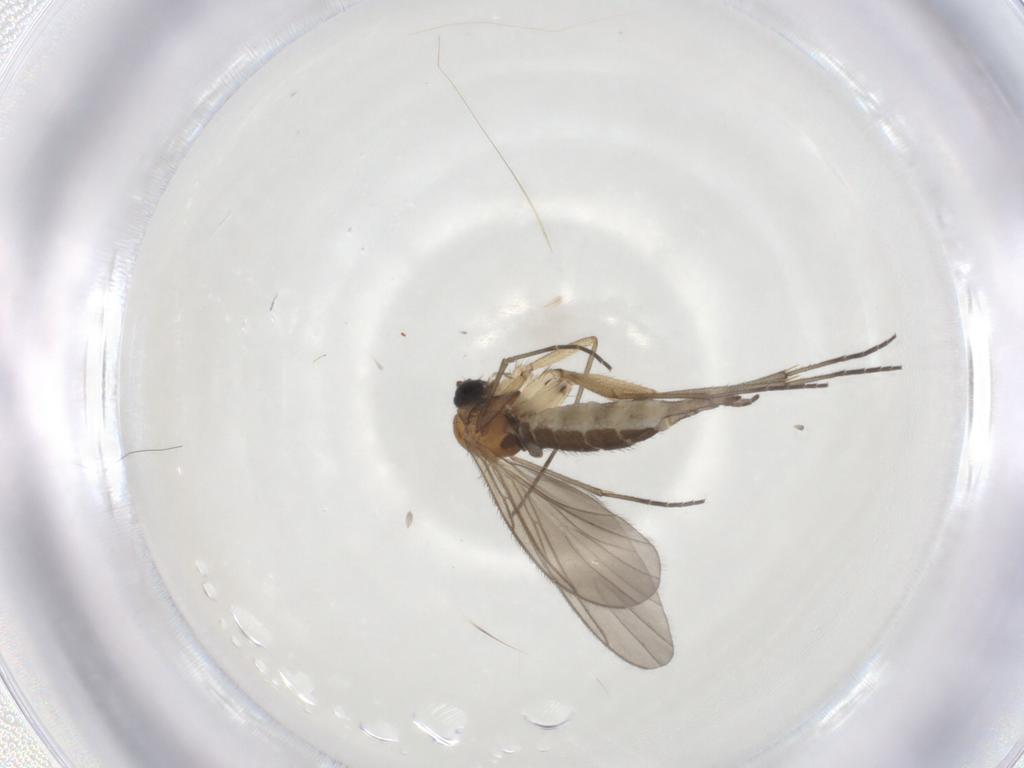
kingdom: Animalia
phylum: Arthropoda
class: Insecta
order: Diptera
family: Sciaridae
